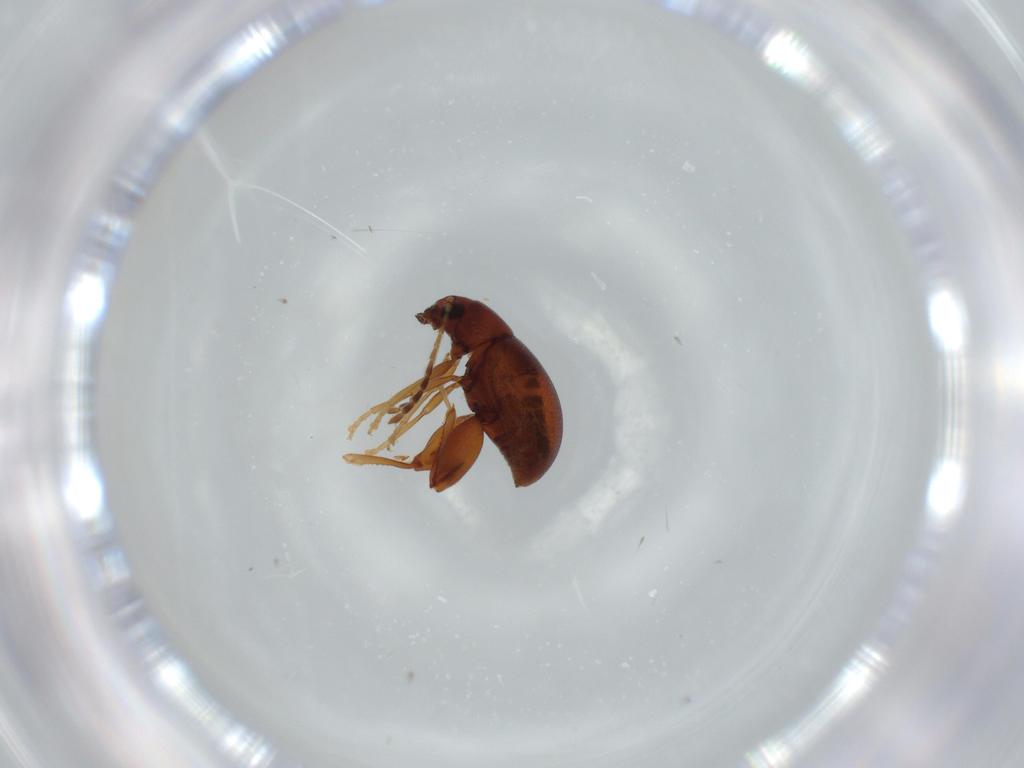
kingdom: Animalia
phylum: Arthropoda
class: Insecta
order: Coleoptera
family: Chrysomelidae
